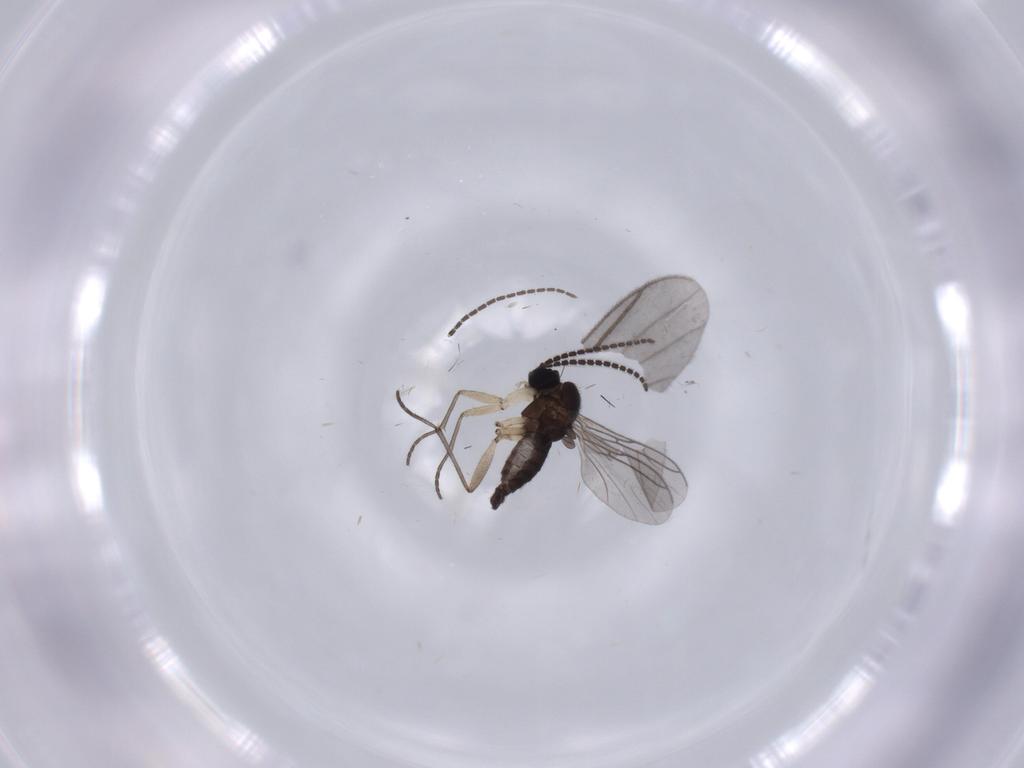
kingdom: Animalia
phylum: Arthropoda
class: Insecta
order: Diptera
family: Sciaridae
